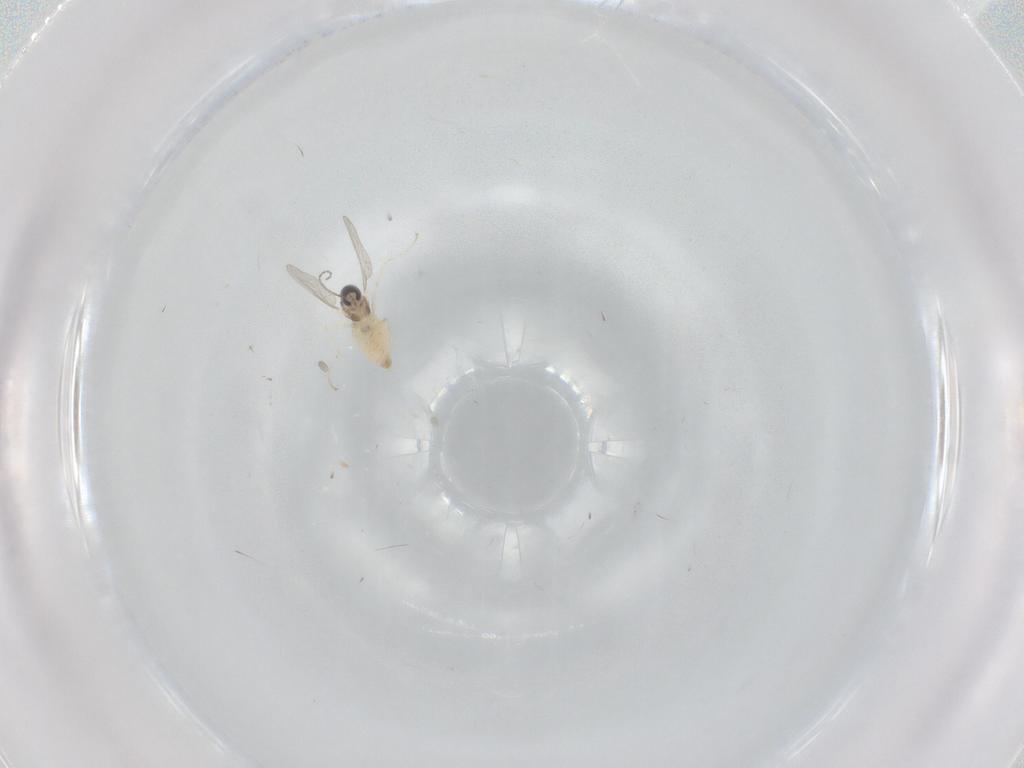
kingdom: Animalia
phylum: Arthropoda
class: Insecta
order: Diptera
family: Cecidomyiidae
